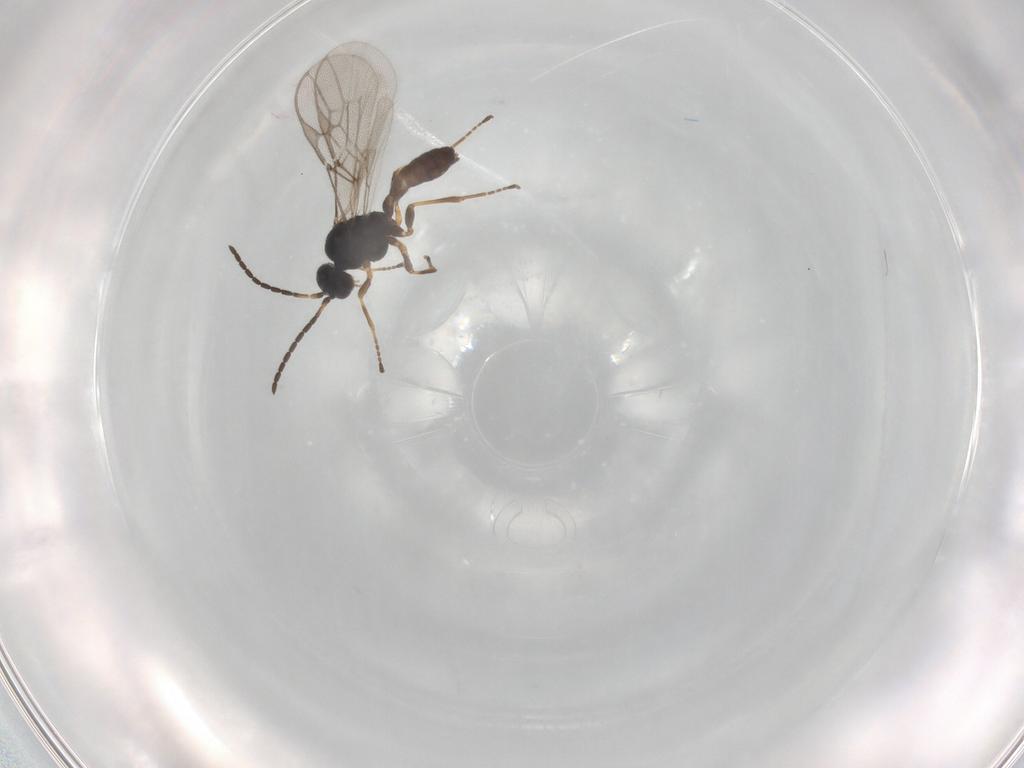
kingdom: Animalia
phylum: Arthropoda
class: Insecta
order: Hymenoptera
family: Braconidae
